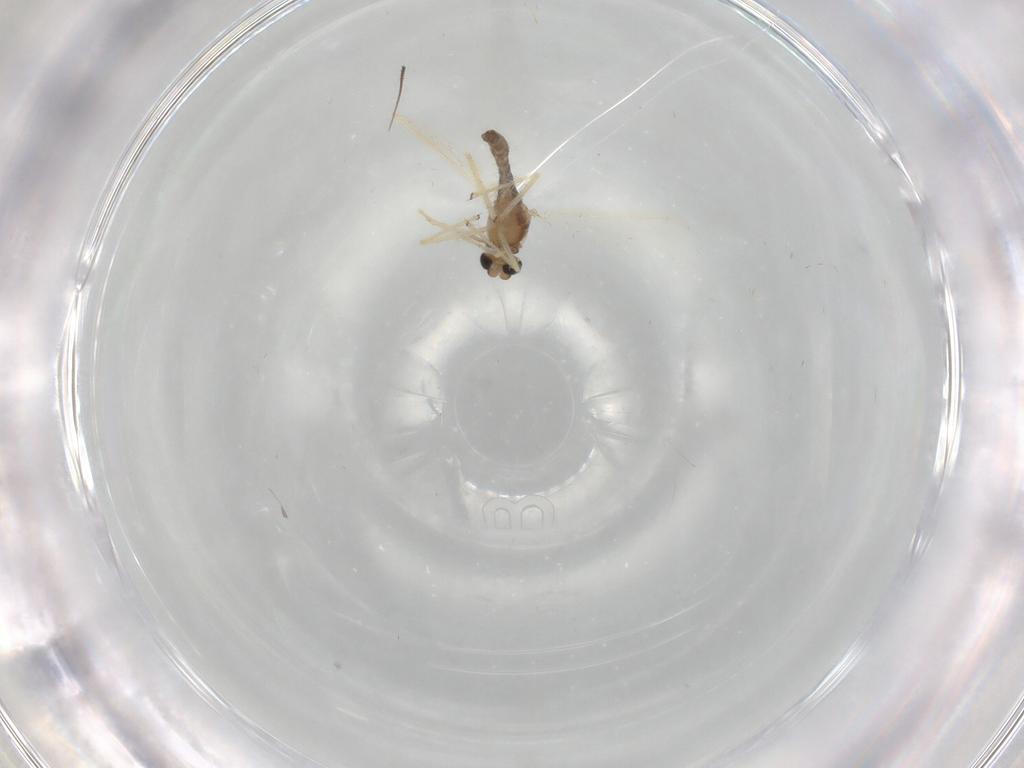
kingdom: Animalia
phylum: Arthropoda
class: Insecta
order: Diptera
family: Chironomidae
